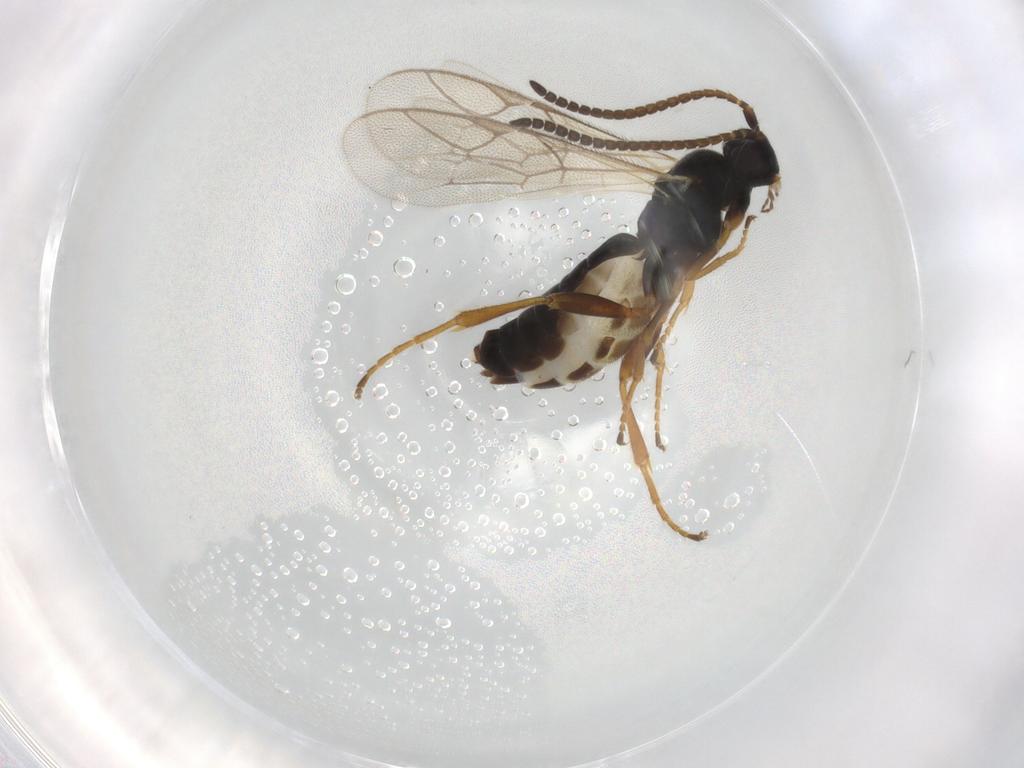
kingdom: Animalia
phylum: Arthropoda
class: Insecta
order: Hymenoptera
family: Ichneumonidae
